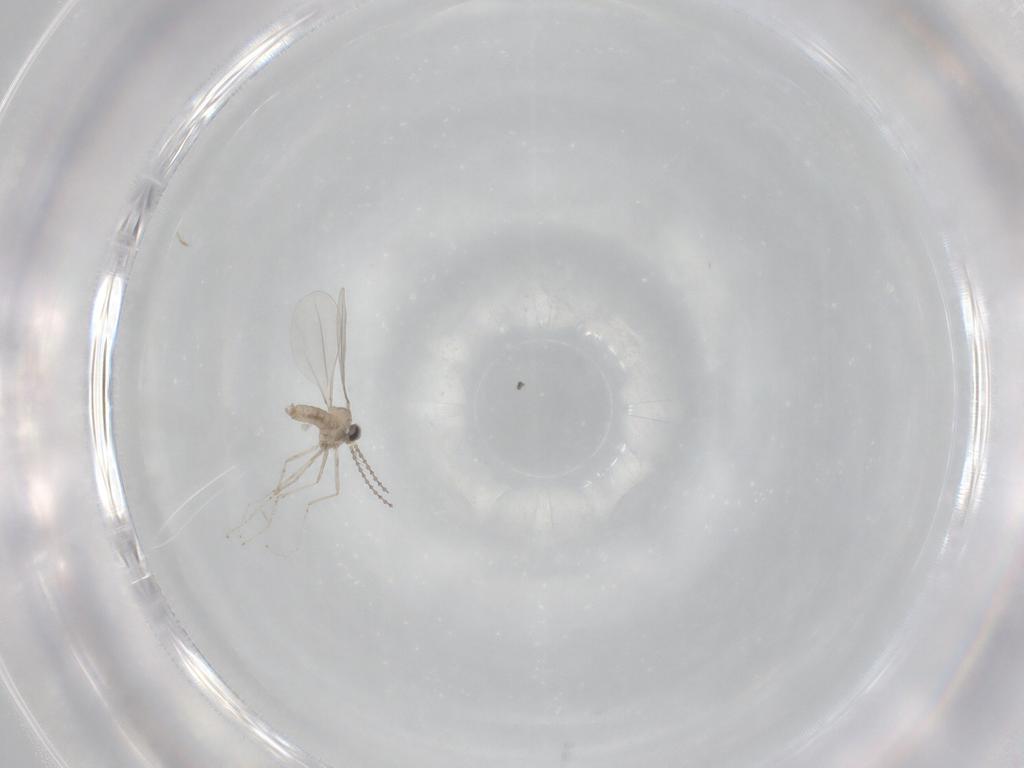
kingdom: Animalia
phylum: Arthropoda
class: Insecta
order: Diptera
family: Cecidomyiidae
